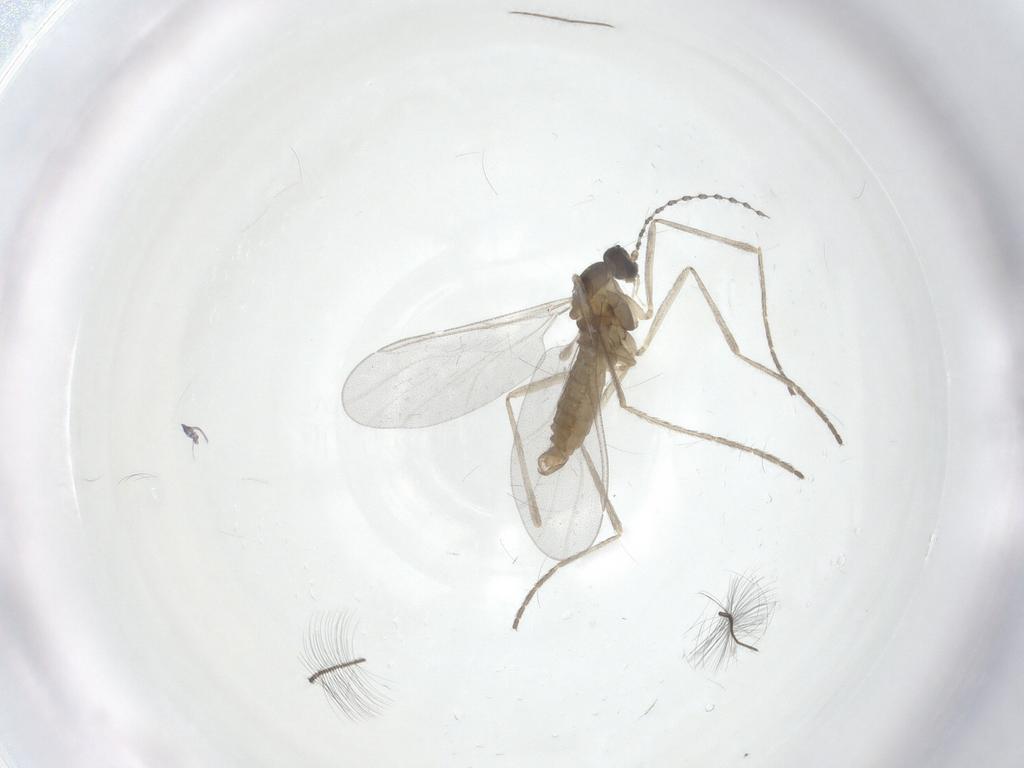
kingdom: Animalia
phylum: Arthropoda
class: Insecta
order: Diptera
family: Cecidomyiidae
